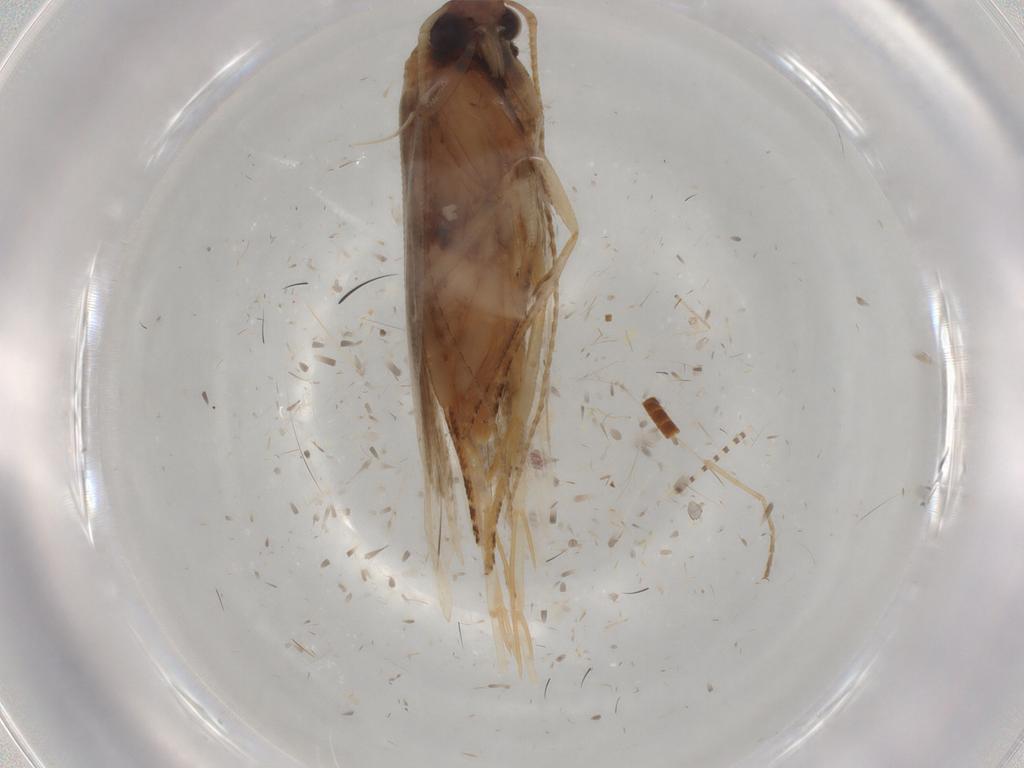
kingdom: Animalia
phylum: Arthropoda
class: Insecta
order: Lepidoptera
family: Gelechiidae
